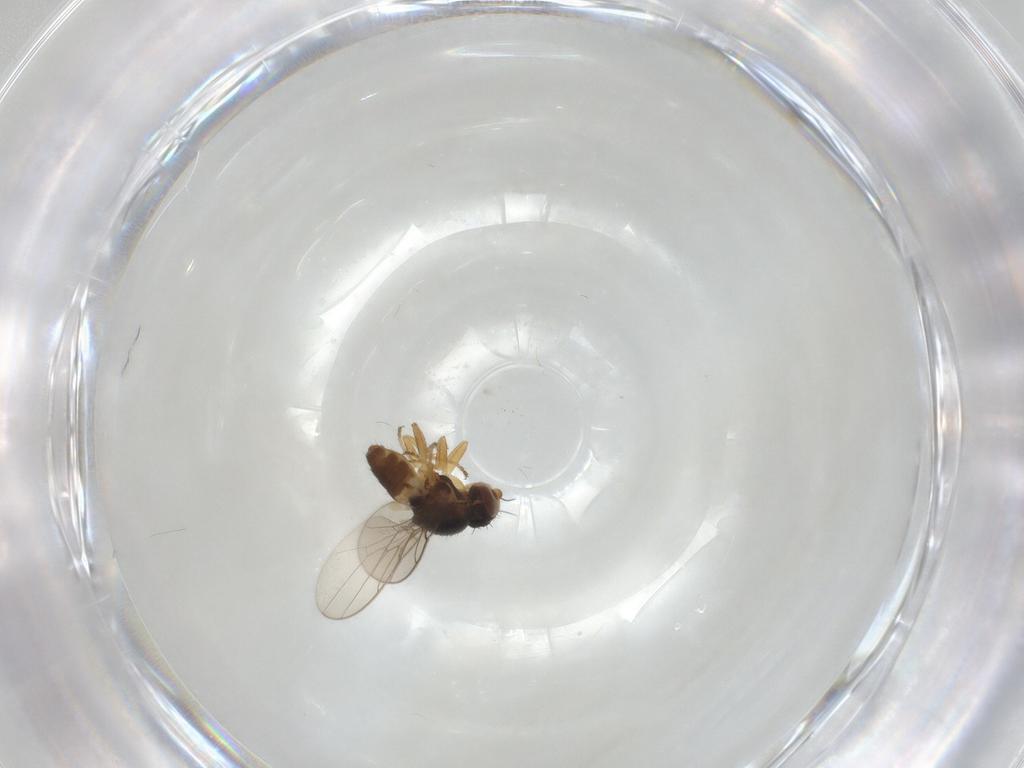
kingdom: Animalia
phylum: Arthropoda
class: Insecta
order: Diptera
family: Chloropidae
